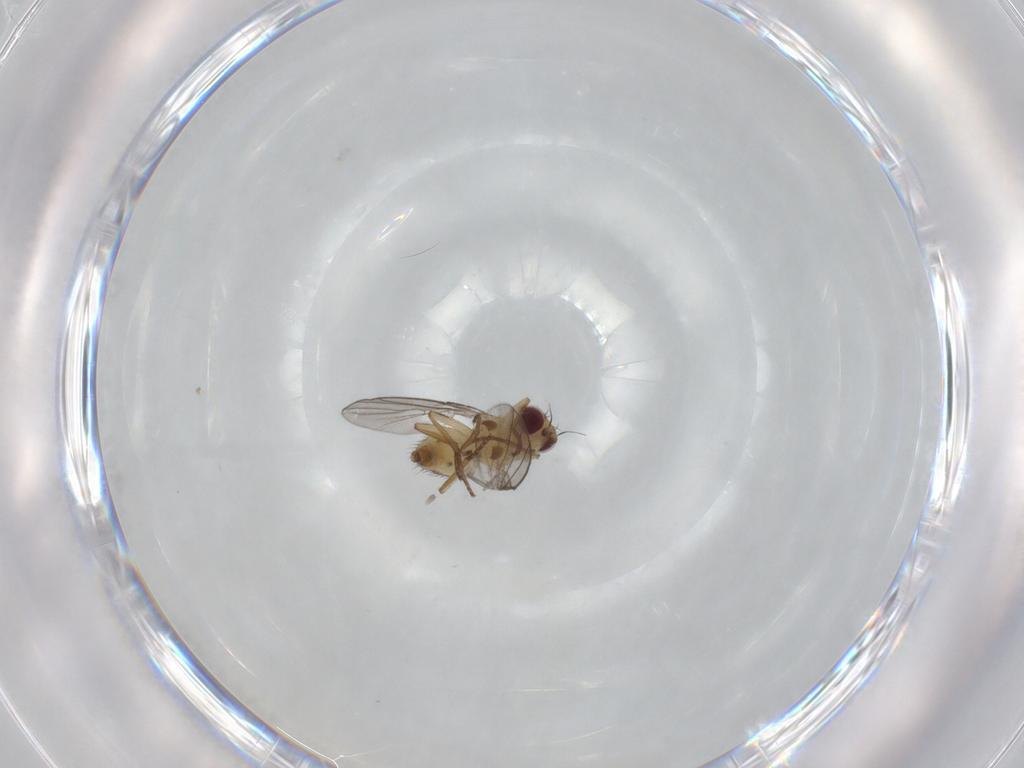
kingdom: Animalia
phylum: Arthropoda
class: Insecta
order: Diptera
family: Agromyzidae
